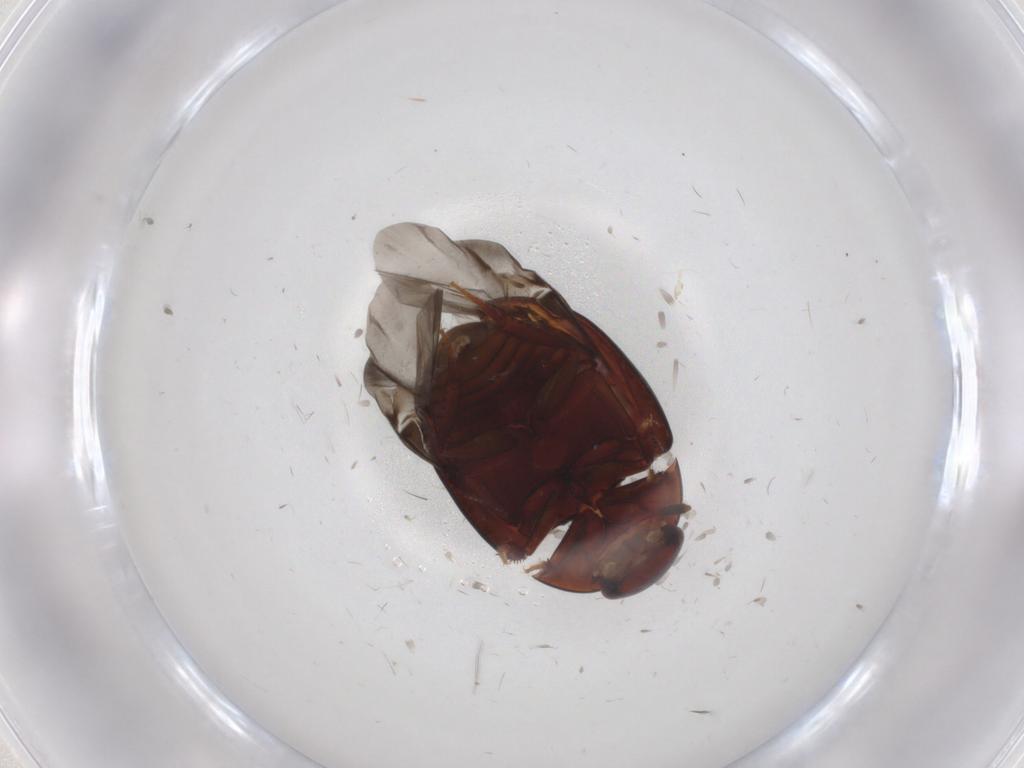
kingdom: Animalia
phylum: Arthropoda
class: Insecta
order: Coleoptera
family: Hydrophilidae
